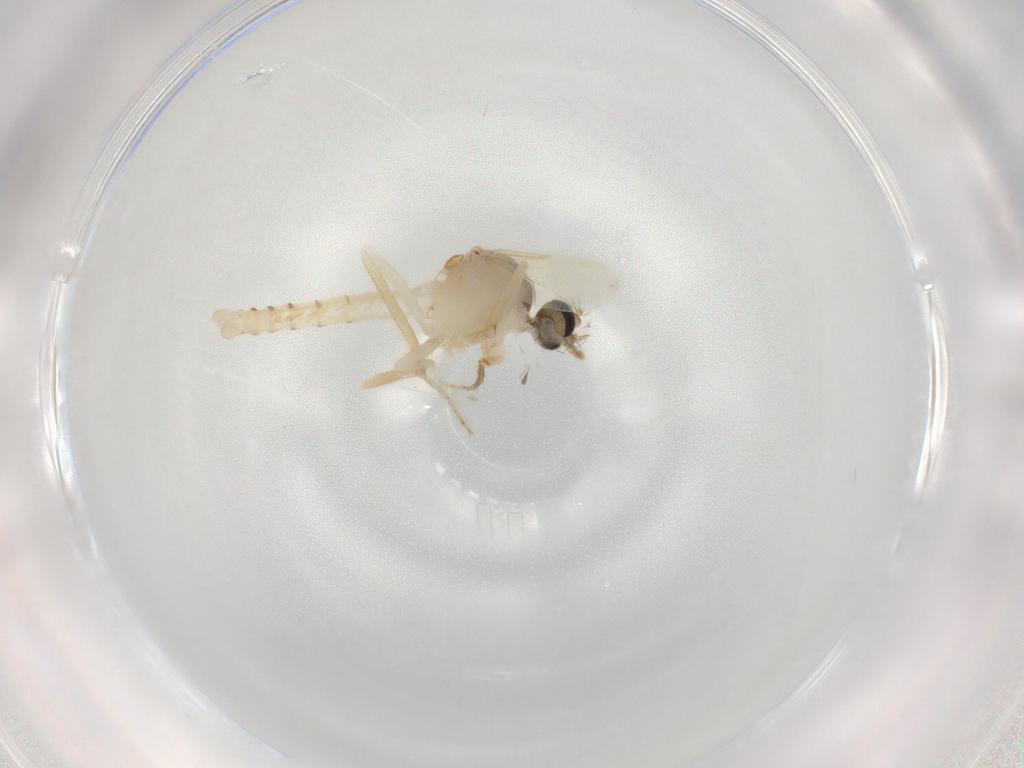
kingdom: Animalia
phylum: Arthropoda
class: Insecta
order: Diptera
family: Ceratopogonidae
